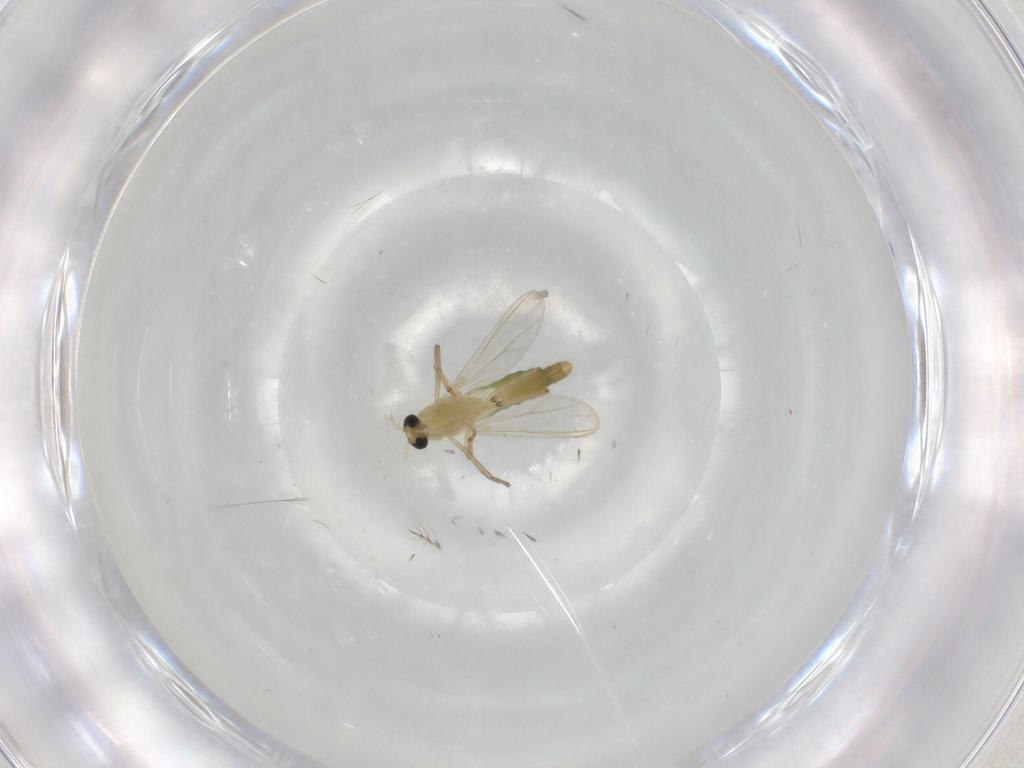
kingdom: Animalia
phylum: Arthropoda
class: Insecta
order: Diptera
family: Chironomidae
